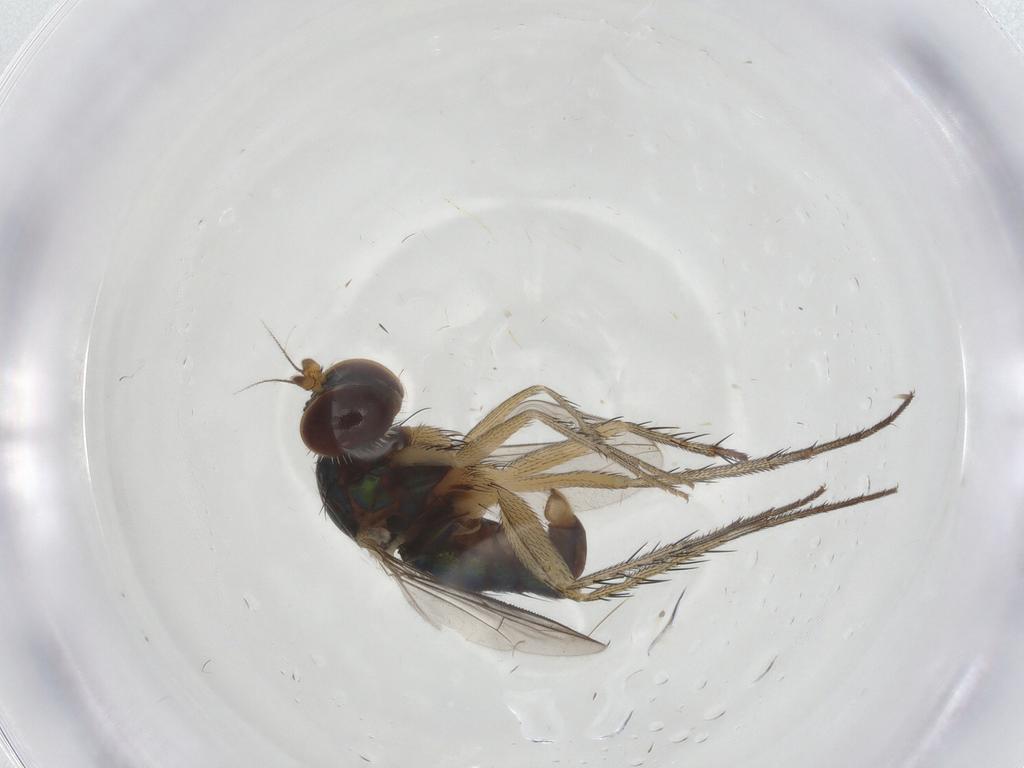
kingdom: Animalia
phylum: Arthropoda
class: Insecta
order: Diptera
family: Dolichopodidae
